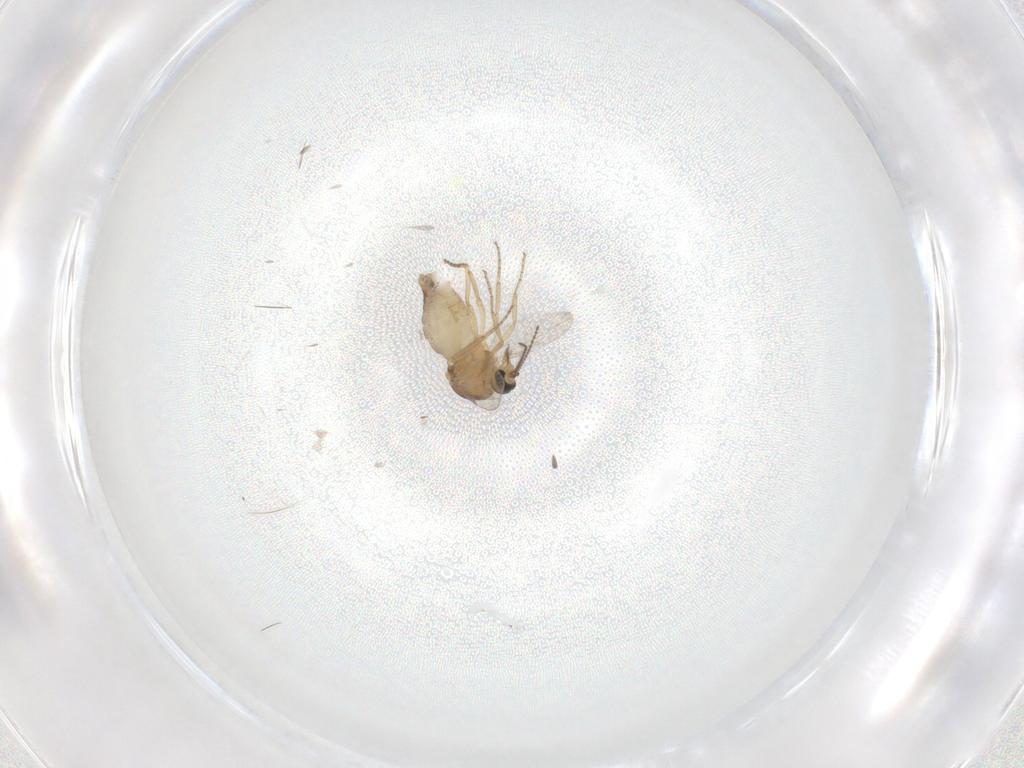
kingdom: Animalia
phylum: Arthropoda
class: Insecta
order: Diptera
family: Ceratopogonidae
